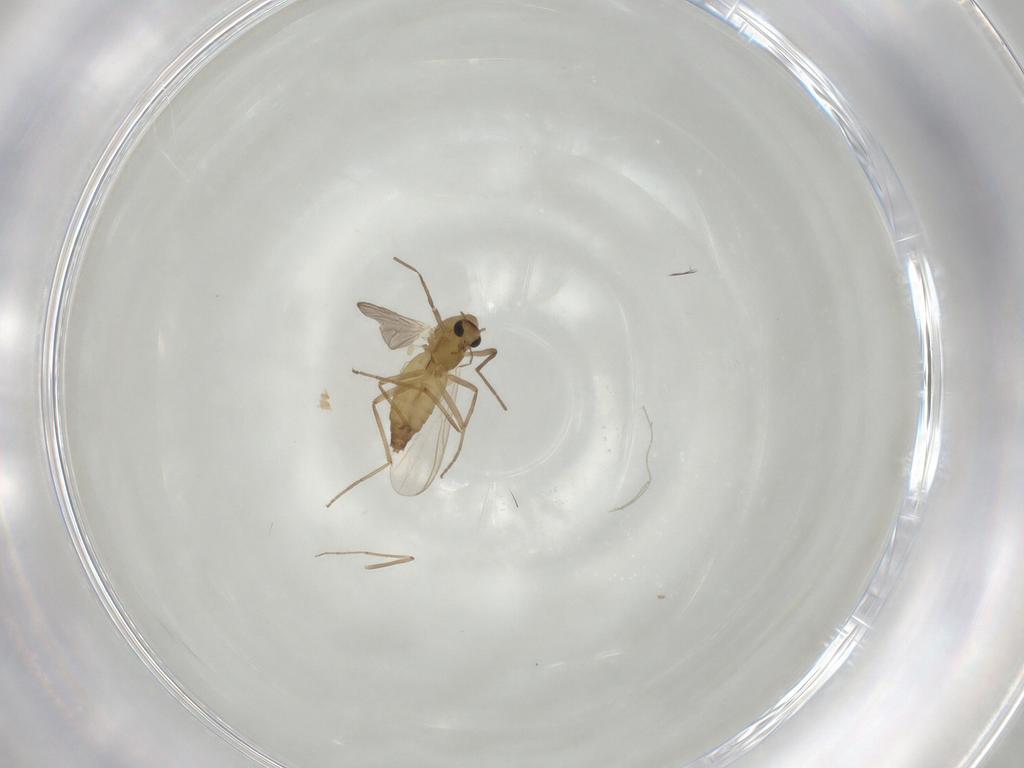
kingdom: Animalia
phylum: Arthropoda
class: Insecta
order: Diptera
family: Chironomidae
